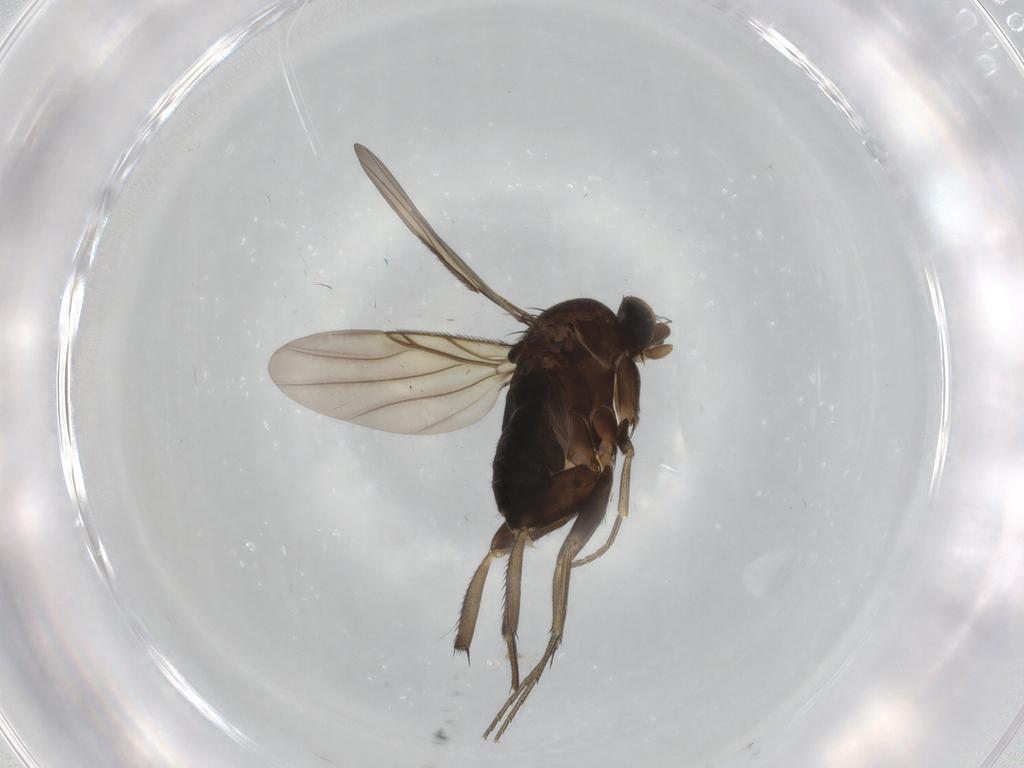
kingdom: Animalia
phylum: Arthropoda
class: Insecta
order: Diptera
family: Phoridae
